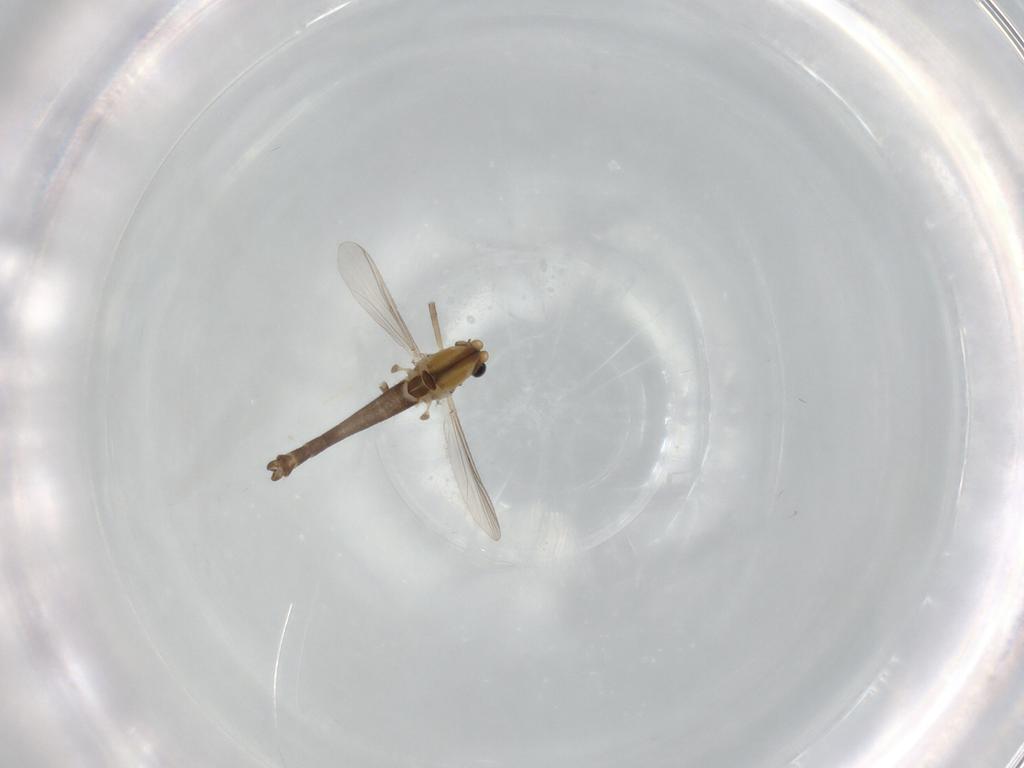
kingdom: Animalia
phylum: Arthropoda
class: Insecta
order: Diptera
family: Chironomidae
